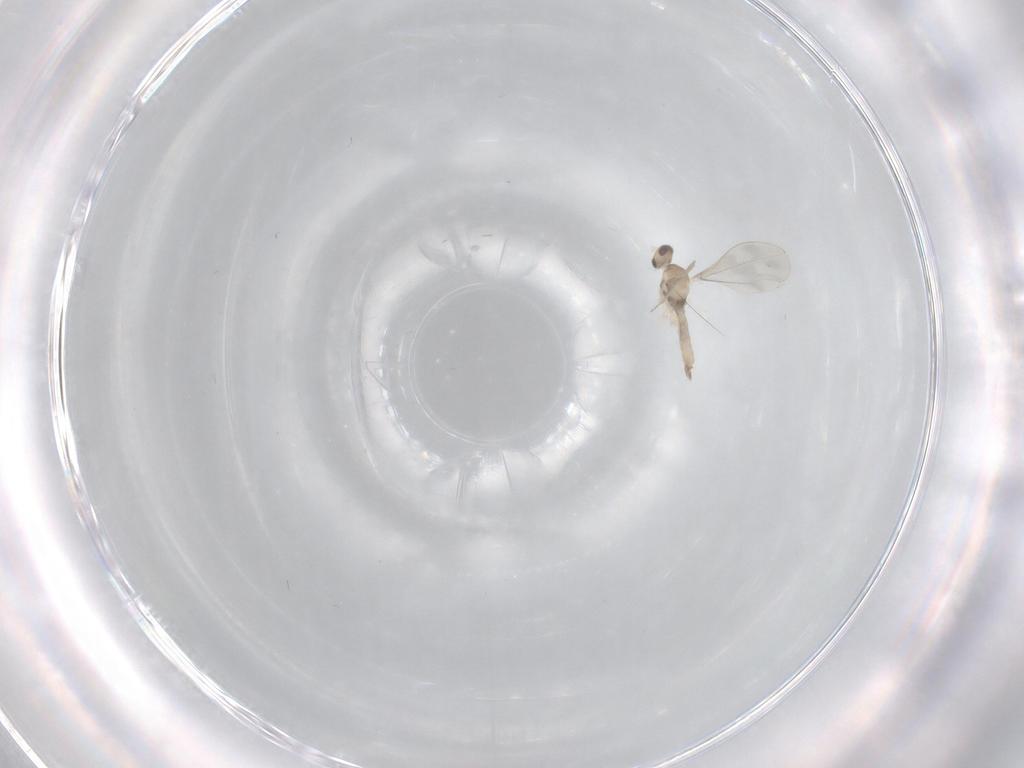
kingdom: Animalia
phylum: Arthropoda
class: Insecta
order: Diptera
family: Cecidomyiidae
